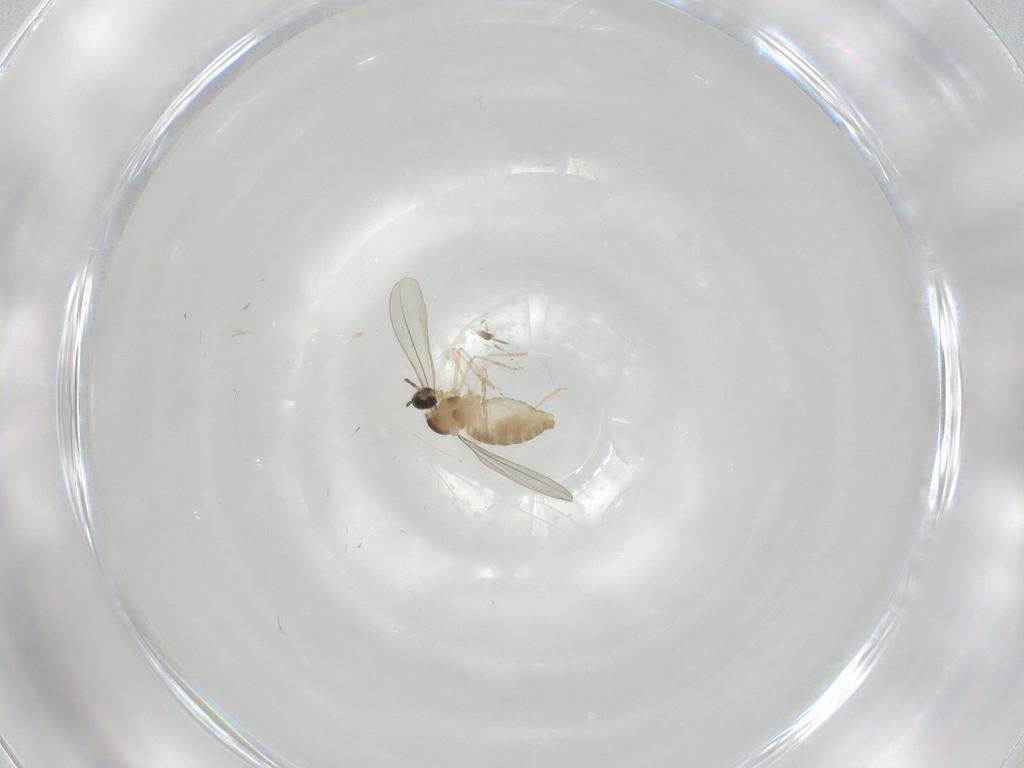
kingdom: Animalia
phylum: Arthropoda
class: Insecta
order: Diptera
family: Cecidomyiidae
